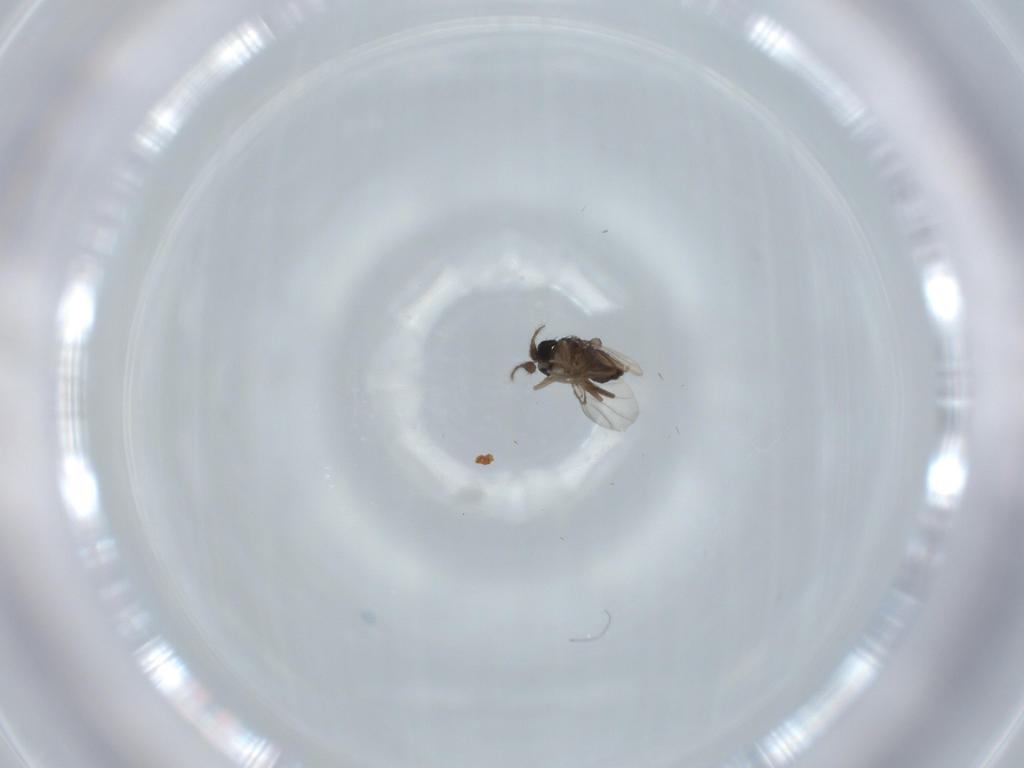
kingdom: Animalia
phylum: Arthropoda
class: Insecta
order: Diptera
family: Phoridae
